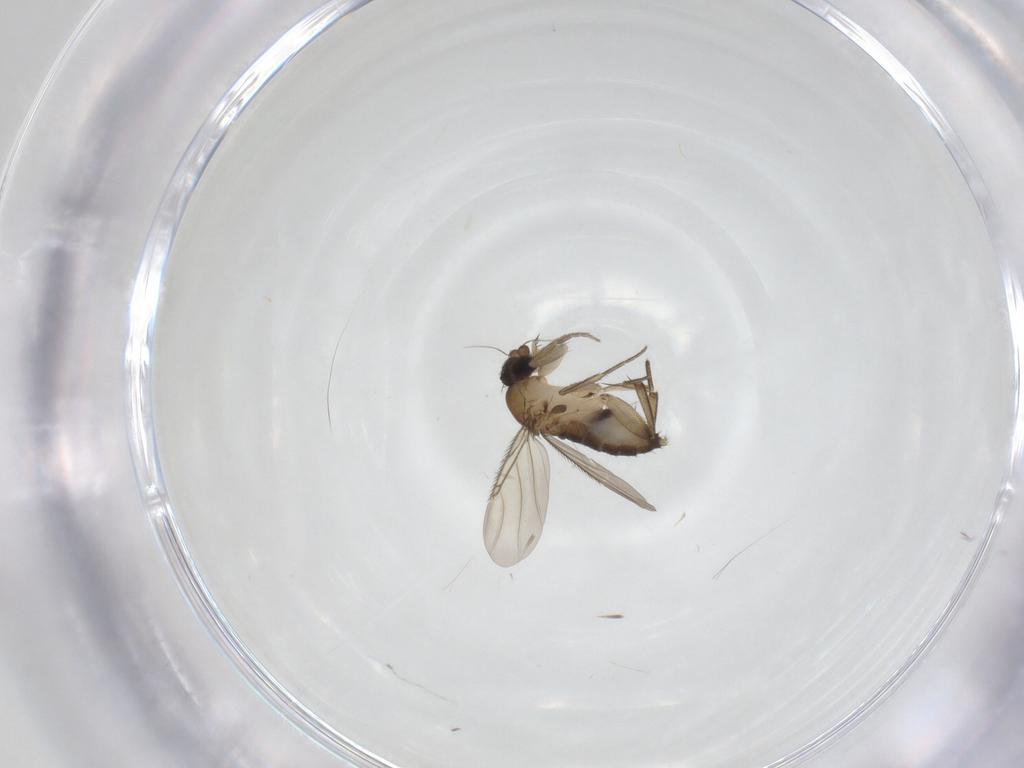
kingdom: Animalia
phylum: Arthropoda
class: Insecta
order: Diptera
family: Phoridae
